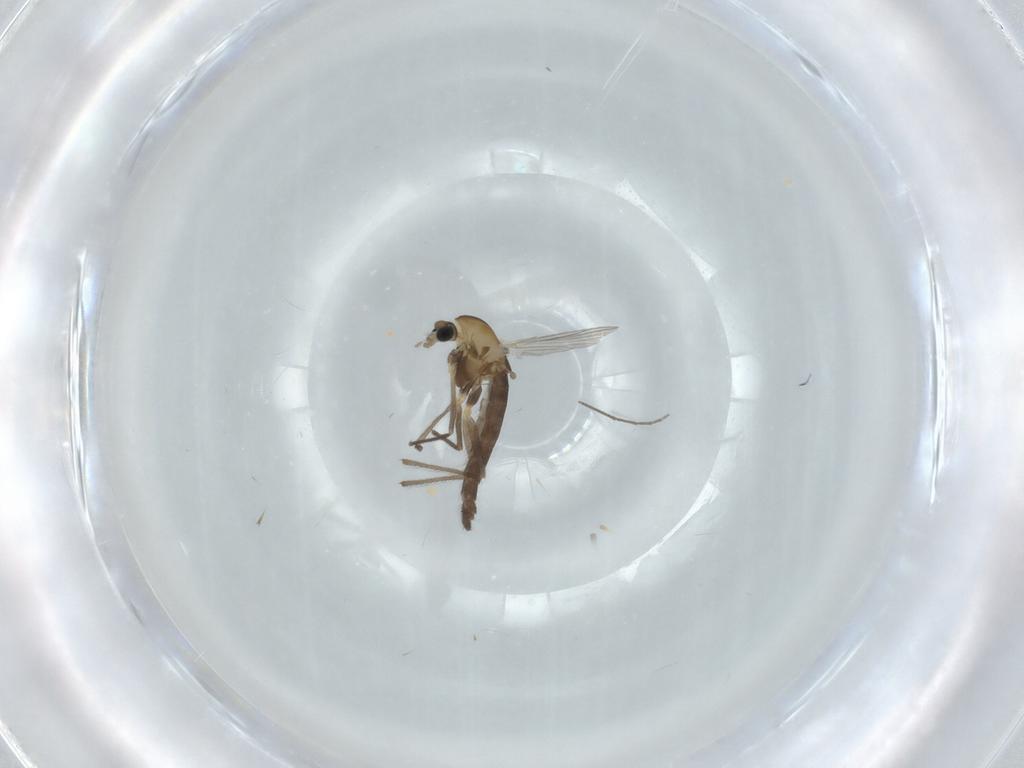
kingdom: Animalia
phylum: Arthropoda
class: Insecta
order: Diptera
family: Chironomidae
